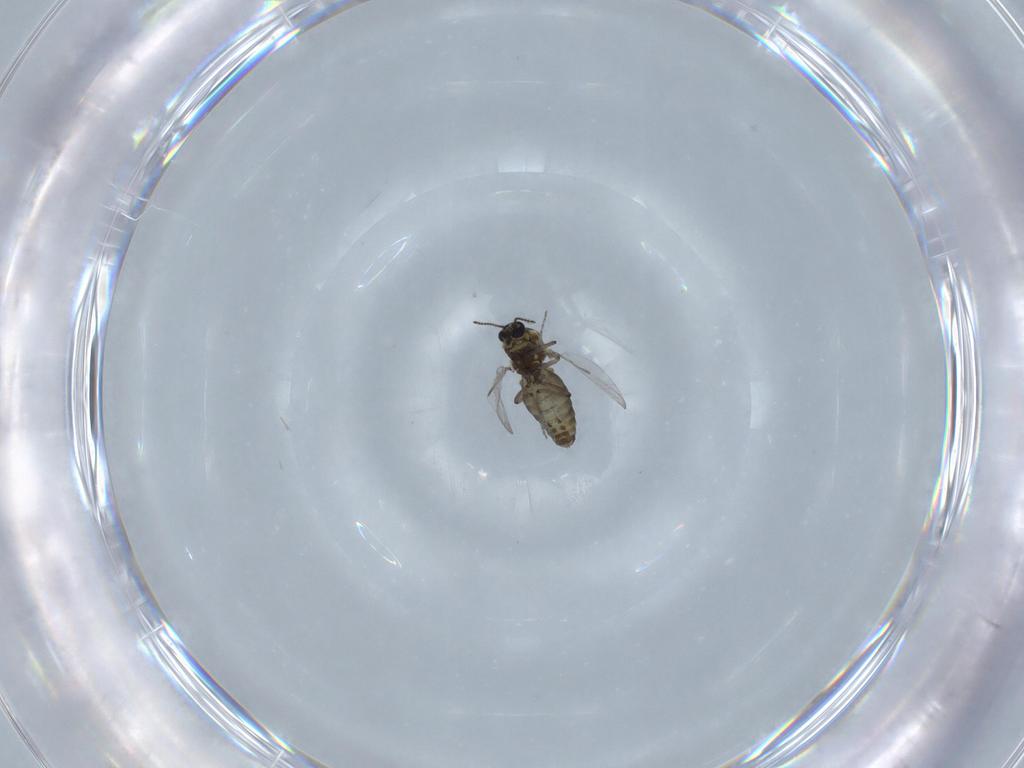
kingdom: Animalia
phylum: Arthropoda
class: Insecta
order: Diptera
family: Ceratopogonidae
